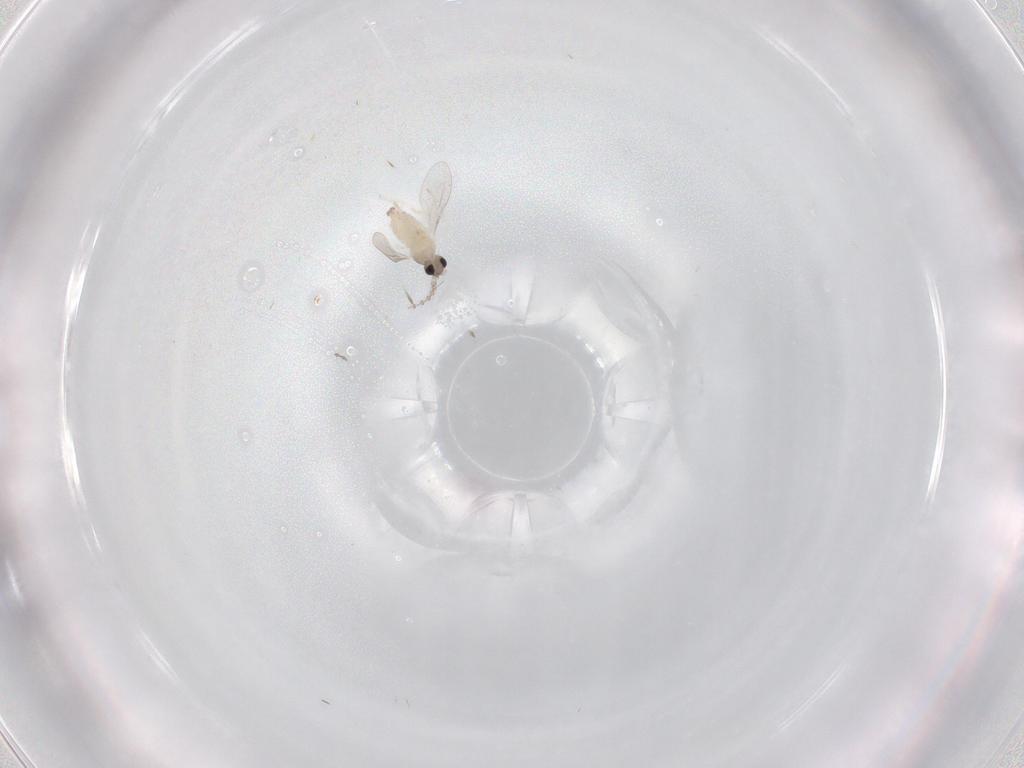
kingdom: Animalia
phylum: Arthropoda
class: Insecta
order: Diptera
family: Cecidomyiidae
